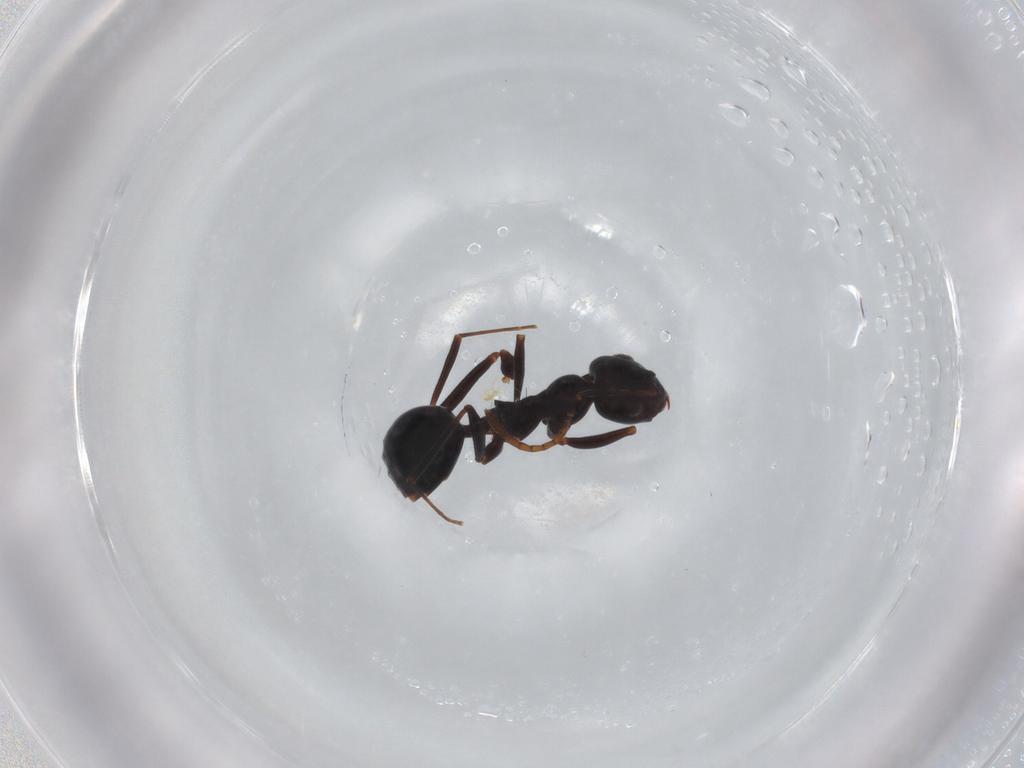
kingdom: Animalia
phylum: Arthropoda
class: Insecta
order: Hymenoptera
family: Formicidae
